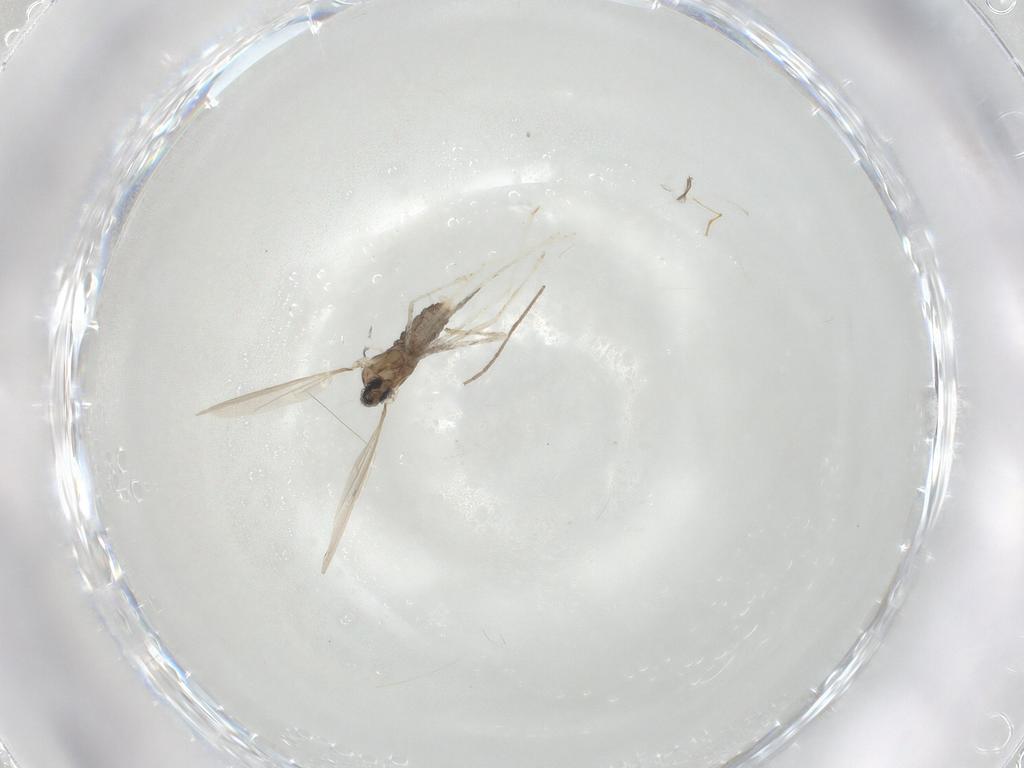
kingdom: Animalia
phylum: Arthropoda
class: Insecta
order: Diptera
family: Cecidomyiidae
